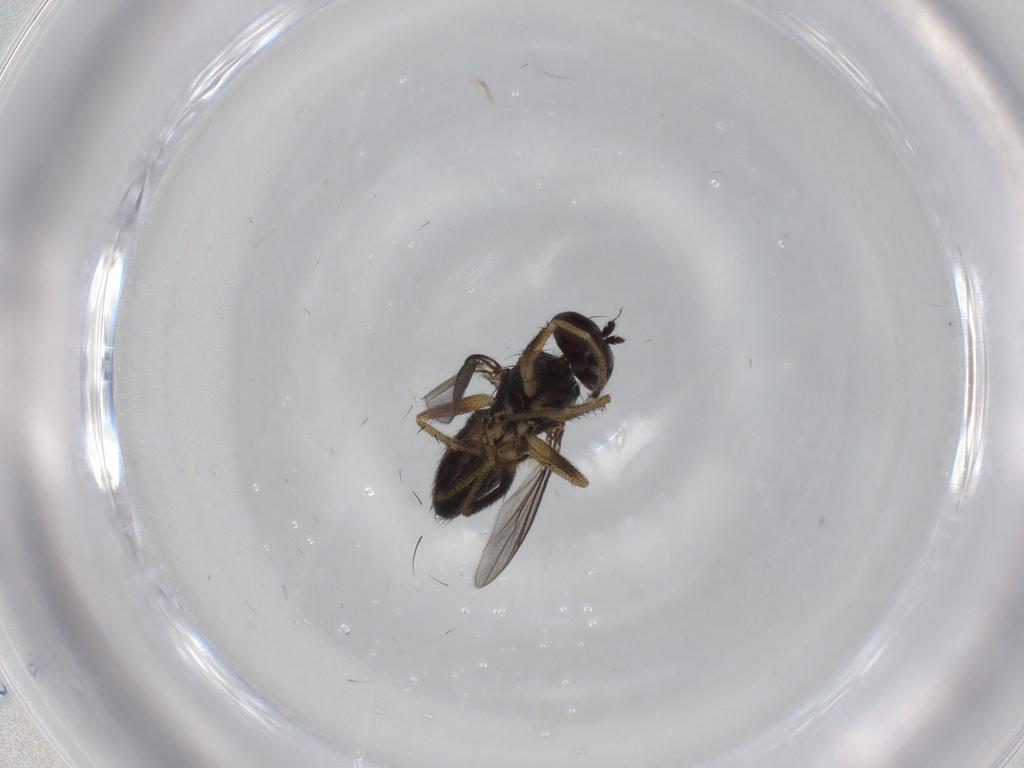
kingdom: Animalia
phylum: Arthropoda
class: Insecta
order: Diptera
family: Dolichopodidae
